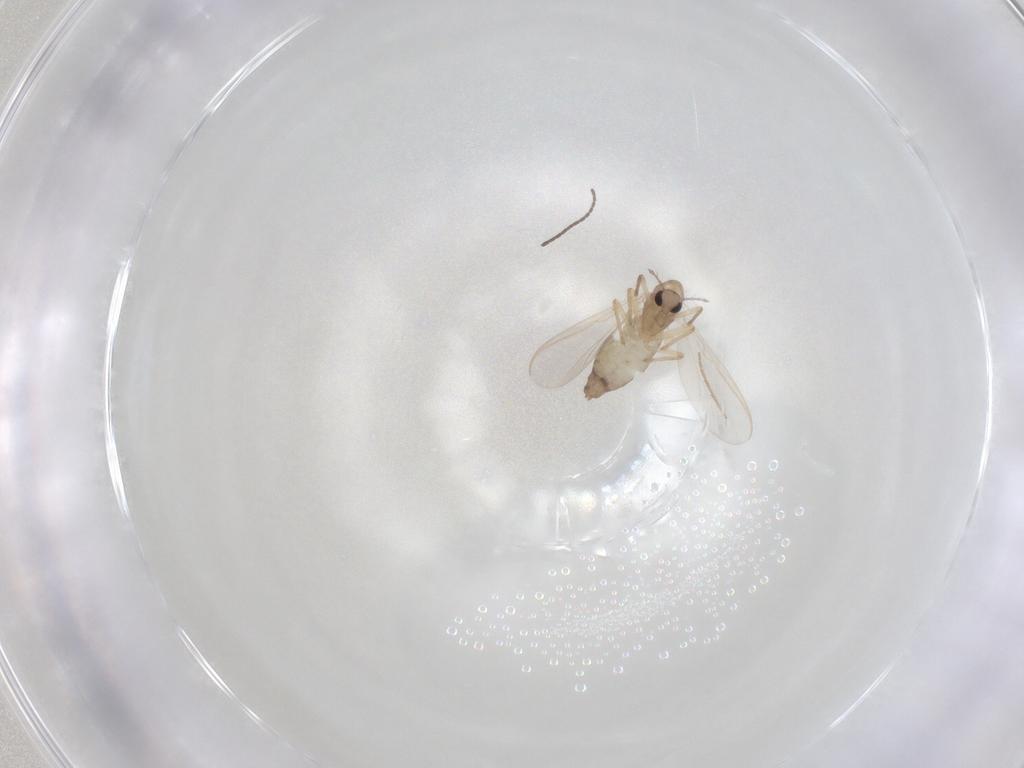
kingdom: Animalia
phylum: Arthropoda
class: Insecta
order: Diptera
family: Chironomidae
